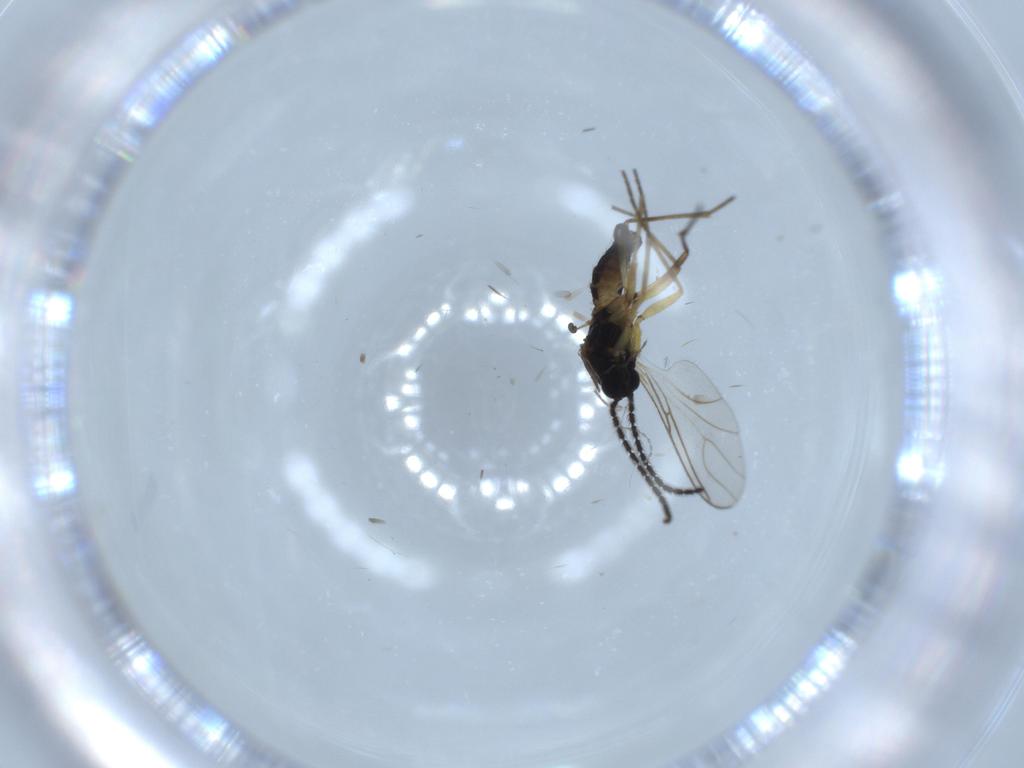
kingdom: Animalia
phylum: Arthropoda
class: Insecta
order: Diptera
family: Sciaridae
